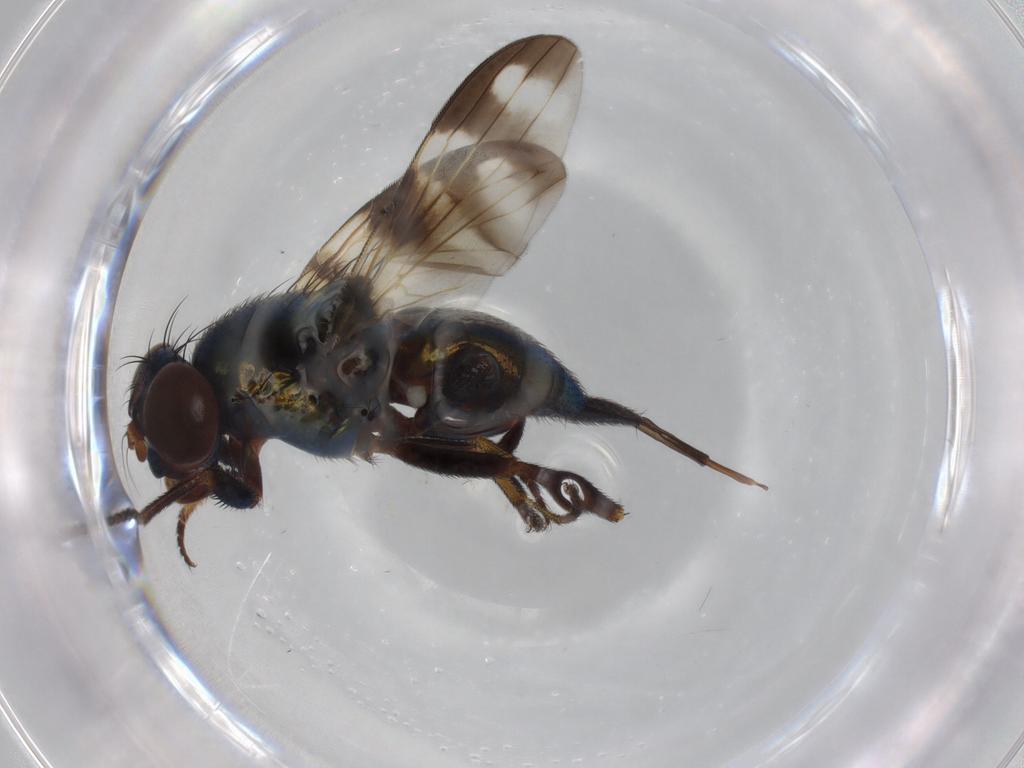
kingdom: Animalia
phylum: Arthropoda
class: Insecta
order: Diptera
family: Ulidiidae
